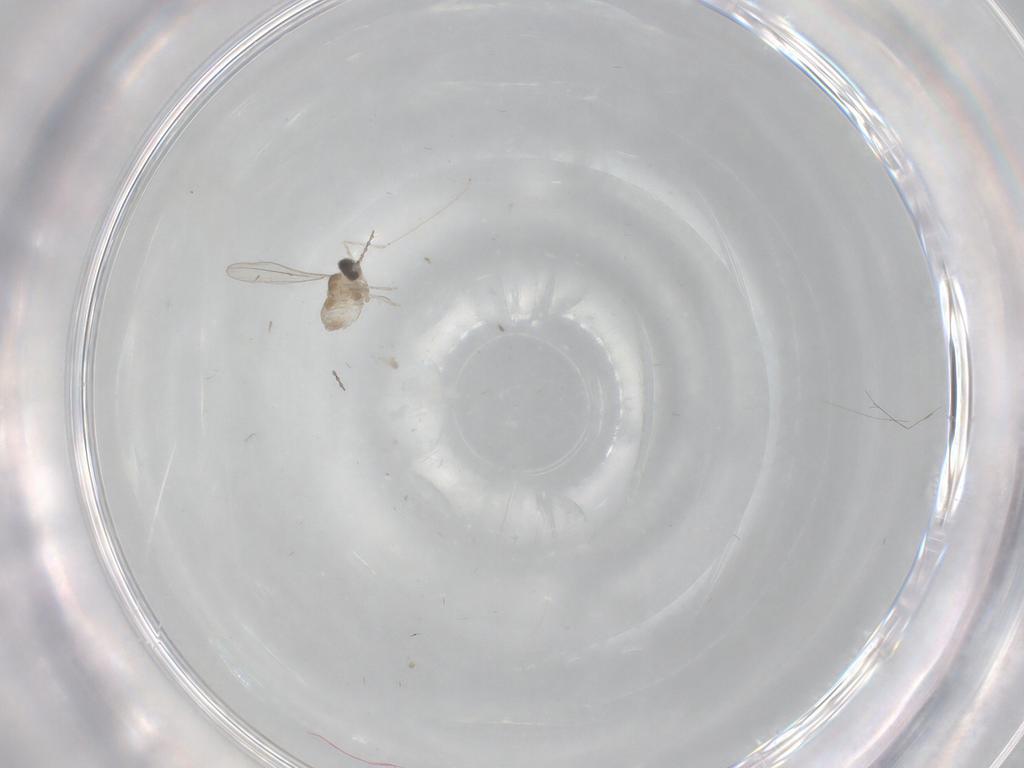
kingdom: Animalia
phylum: Arthropoda
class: Insecta
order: Diptera
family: Cecidomyiidae
